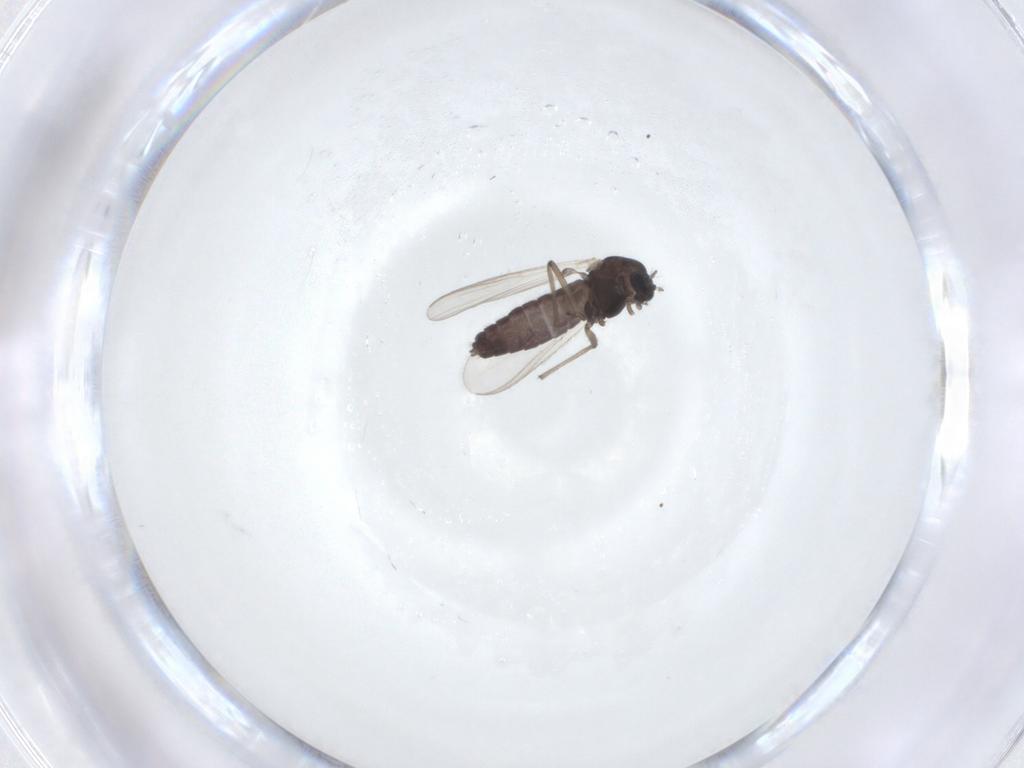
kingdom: Animalia
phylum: Arthropoda
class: Insecta
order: Diptera
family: Chironomidae
